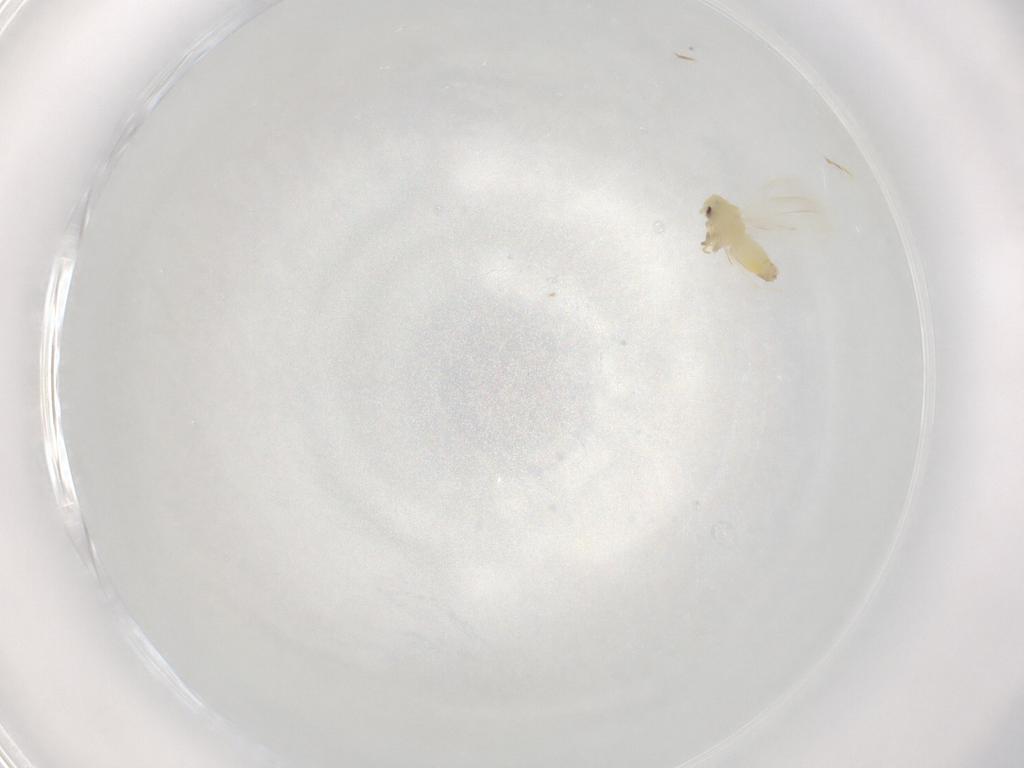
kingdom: Animalia
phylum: Arthropoda
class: Insecta
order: Hemiptera
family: Aleyrodidae
